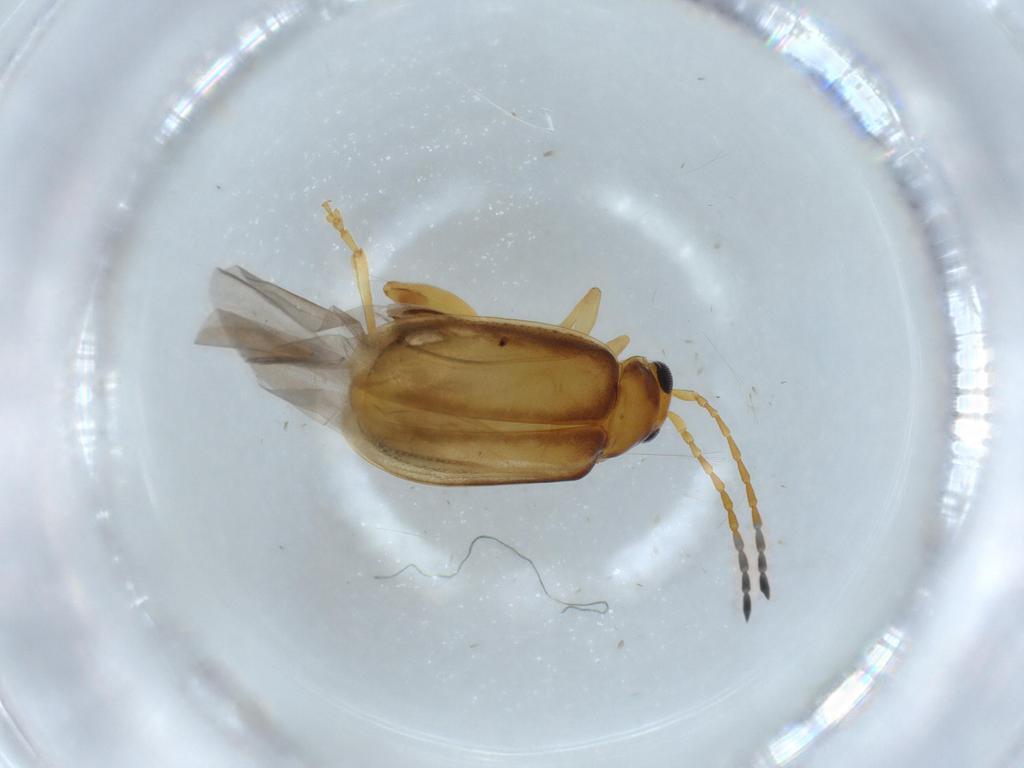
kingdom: Animalia
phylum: Arthropoda
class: Insecta
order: Coleoptera
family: Chrysomelidae
